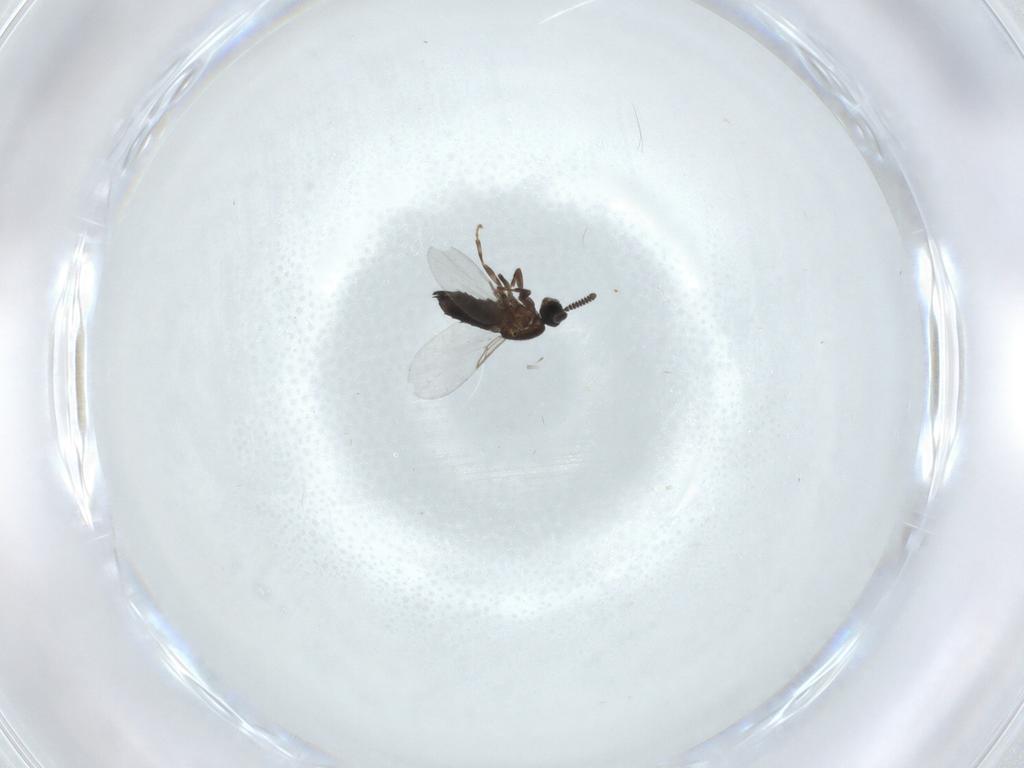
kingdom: Animalia
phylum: Arthropoda
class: Insecta
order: Diptera
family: Scatopsidae
